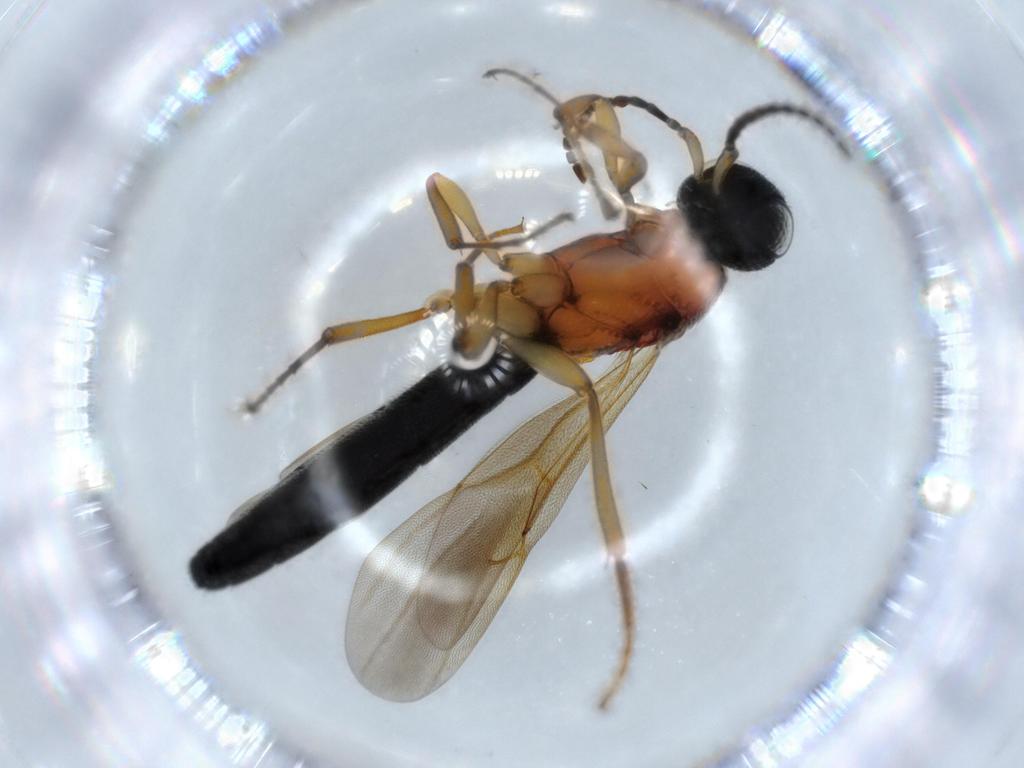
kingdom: Animalia
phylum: Arthropoda
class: Insecta
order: Hymenoptera
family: Scelionidae
